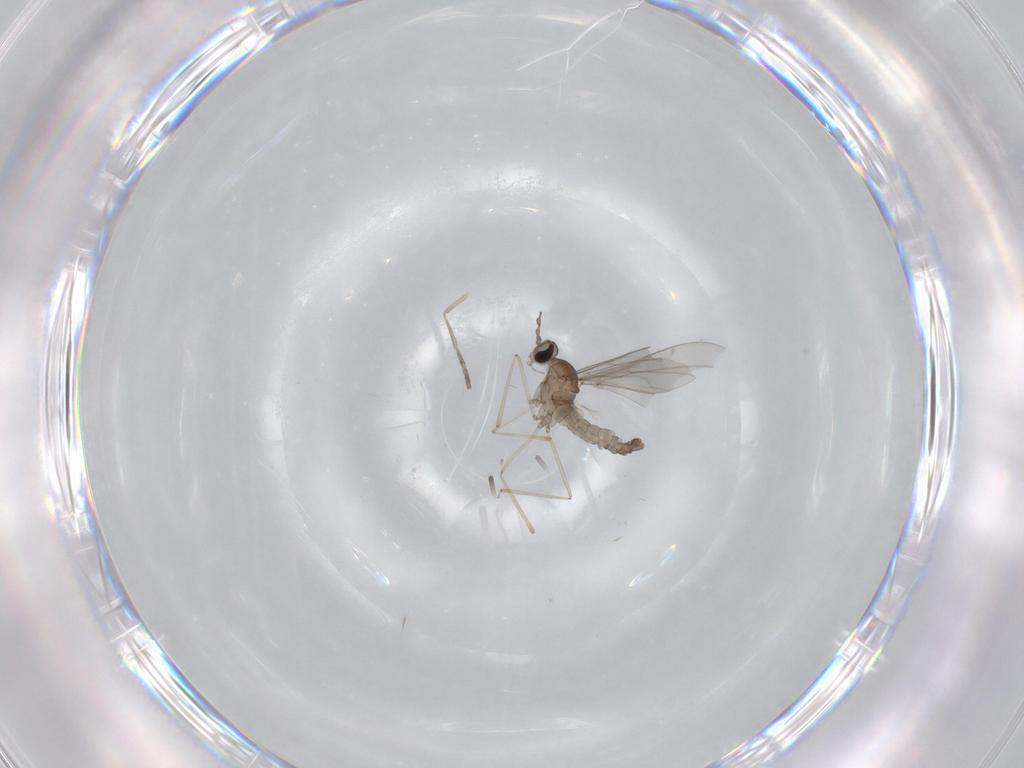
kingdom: Animalia
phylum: Arthropoda
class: Insecta
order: Diptera
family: Cecidomyiidae
